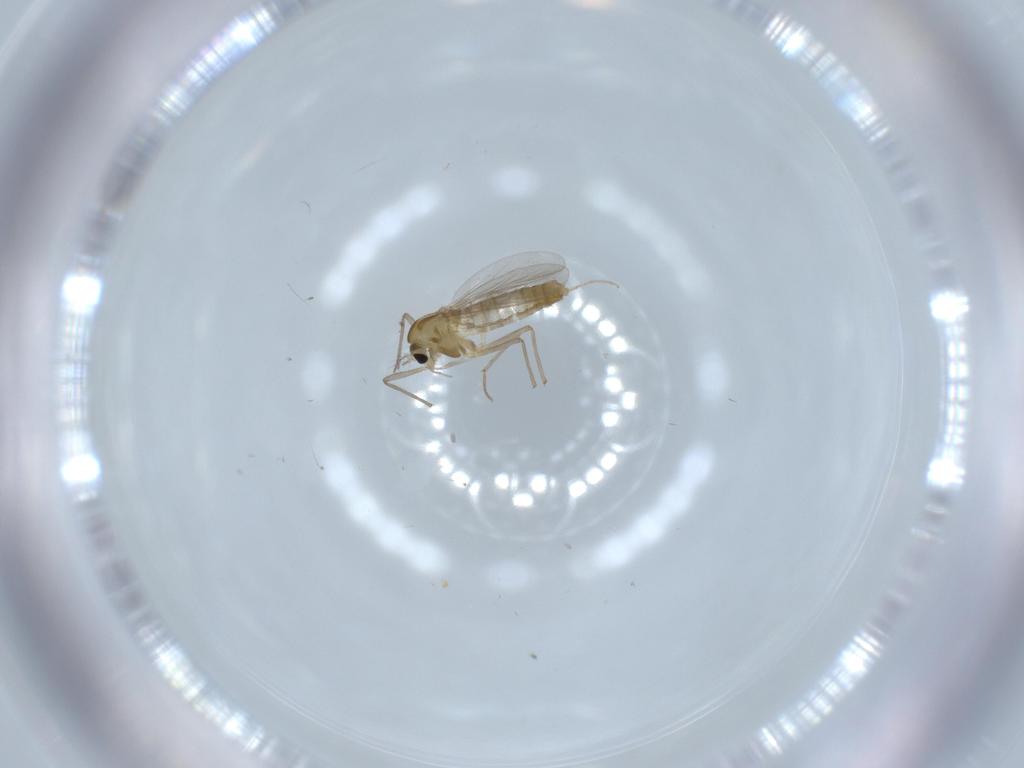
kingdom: Animalia
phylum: Arthropoda
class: Insecta
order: Diptera
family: Chironomidae
